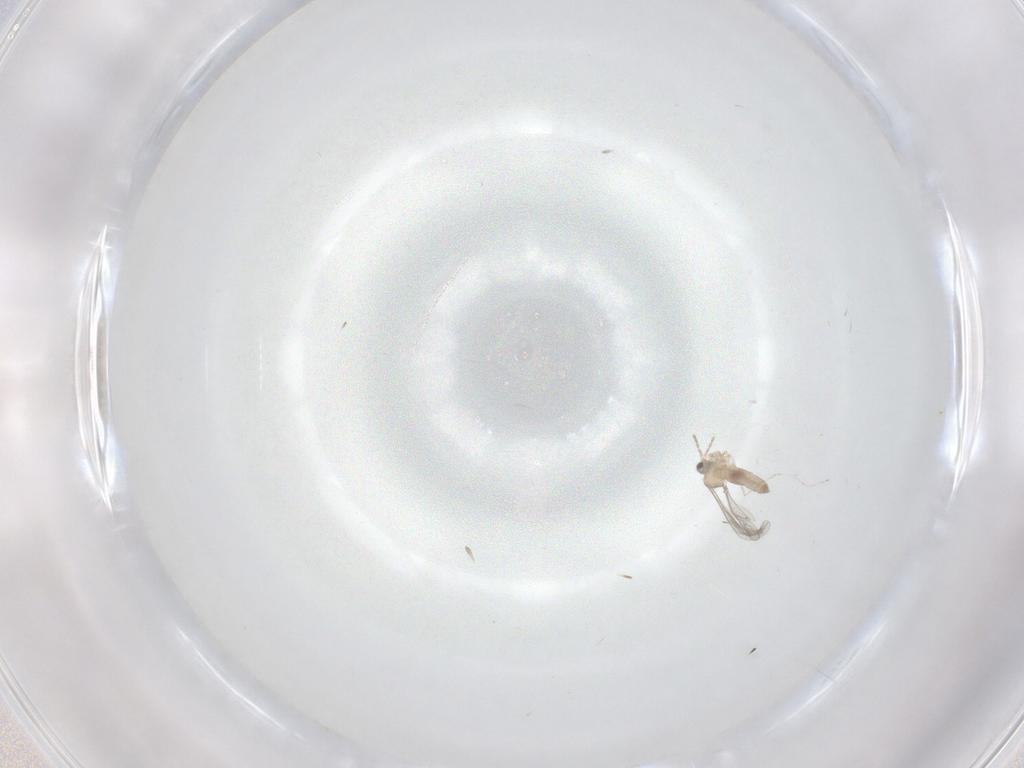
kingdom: Animalia
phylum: Arthropoda
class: Insecta
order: Diptera
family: Cecidomyiidae
